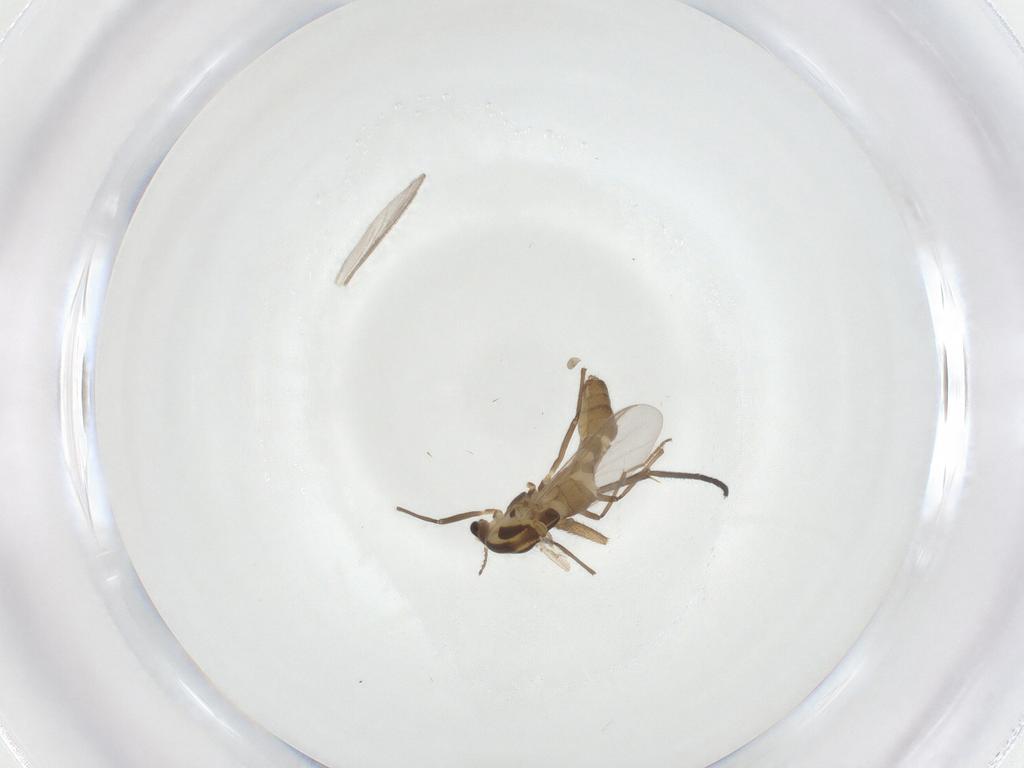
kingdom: Animalia
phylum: Arthropoda
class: Insecta
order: Diptera
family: Chironomidae
